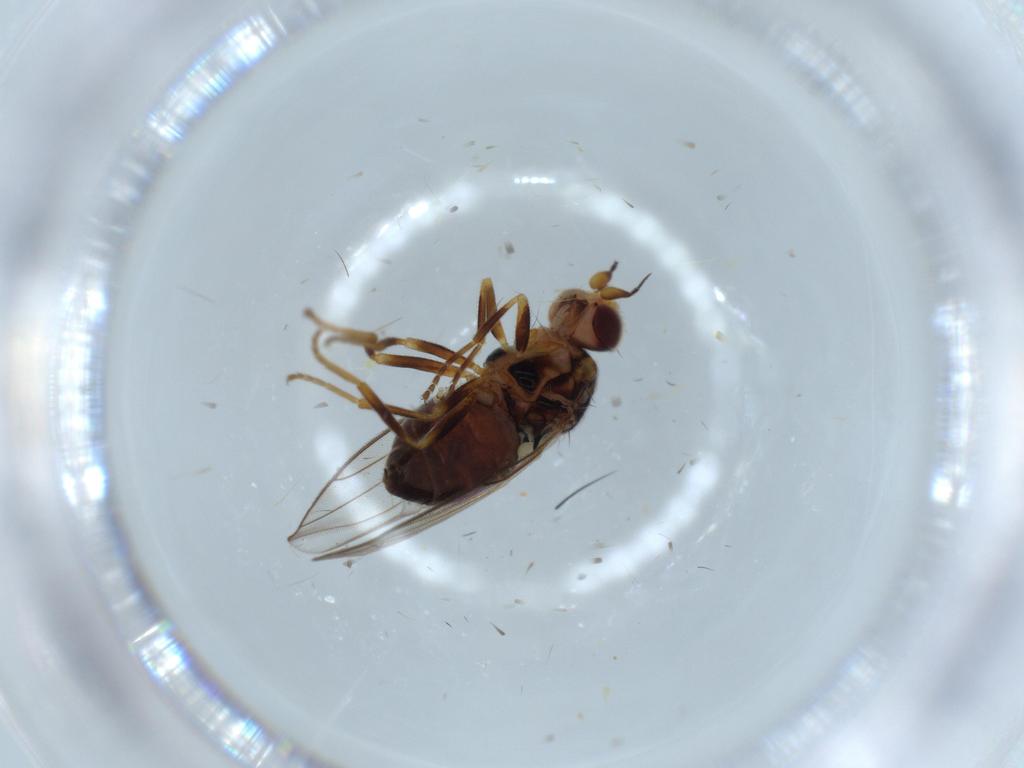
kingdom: Animalia
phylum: Arthropoda
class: Insecta
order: Diptera
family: Chloropidae
